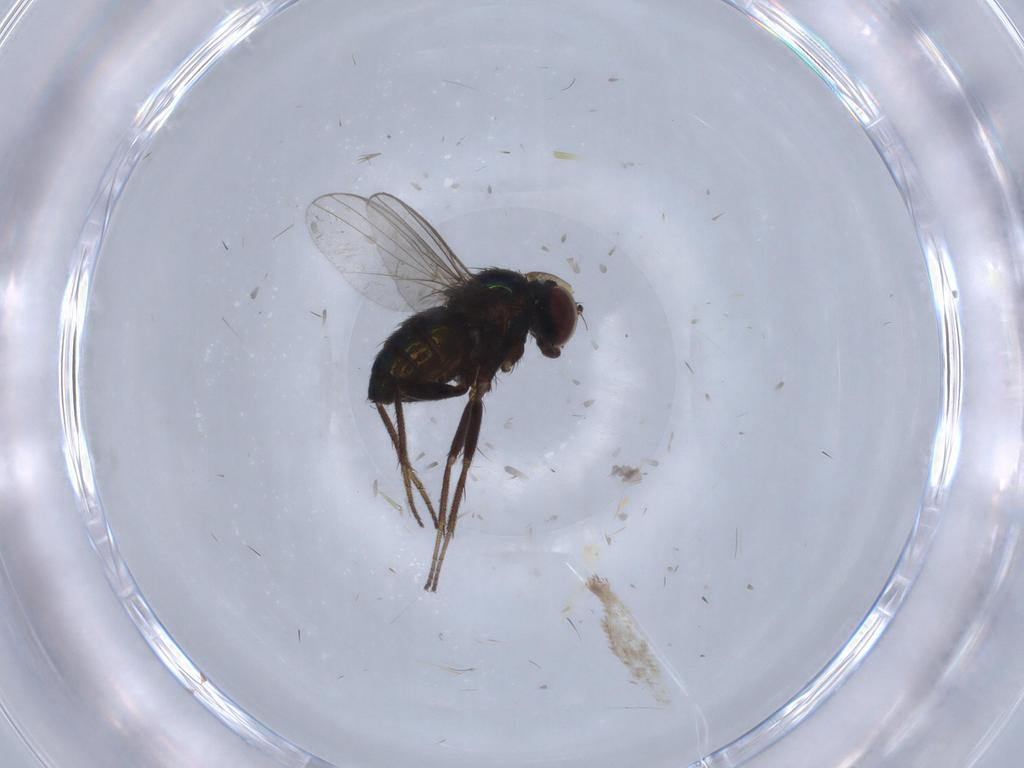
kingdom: Animalia
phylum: Arthropoda
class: Insecta
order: Diptera
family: Phoridae
